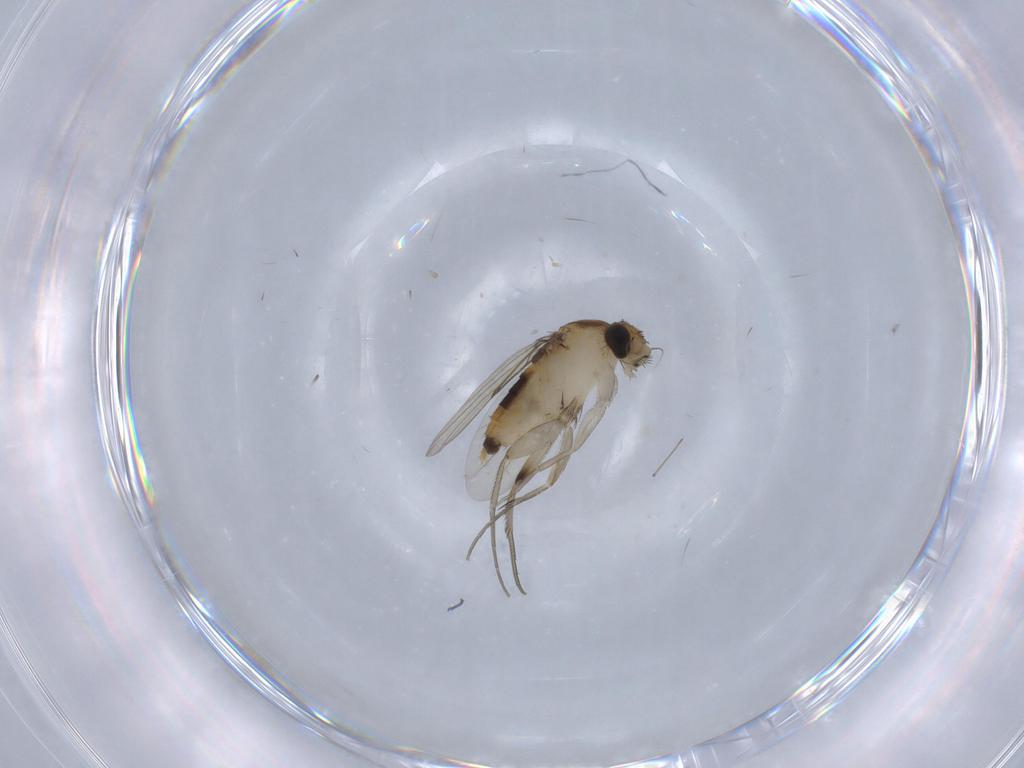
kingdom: Animalia
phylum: Arthropoda
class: Insecta
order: Diptera
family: Phoridae
